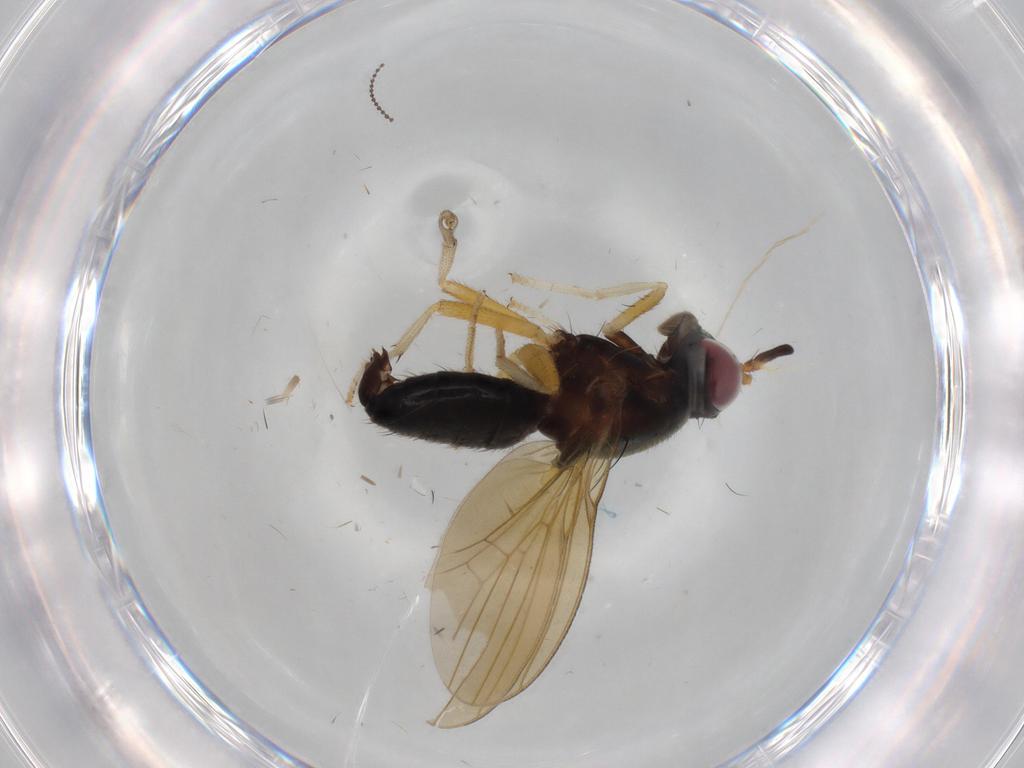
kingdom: Animalia
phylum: Arthropoda
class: Insecta
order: Diptera
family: Lauxaniidae
